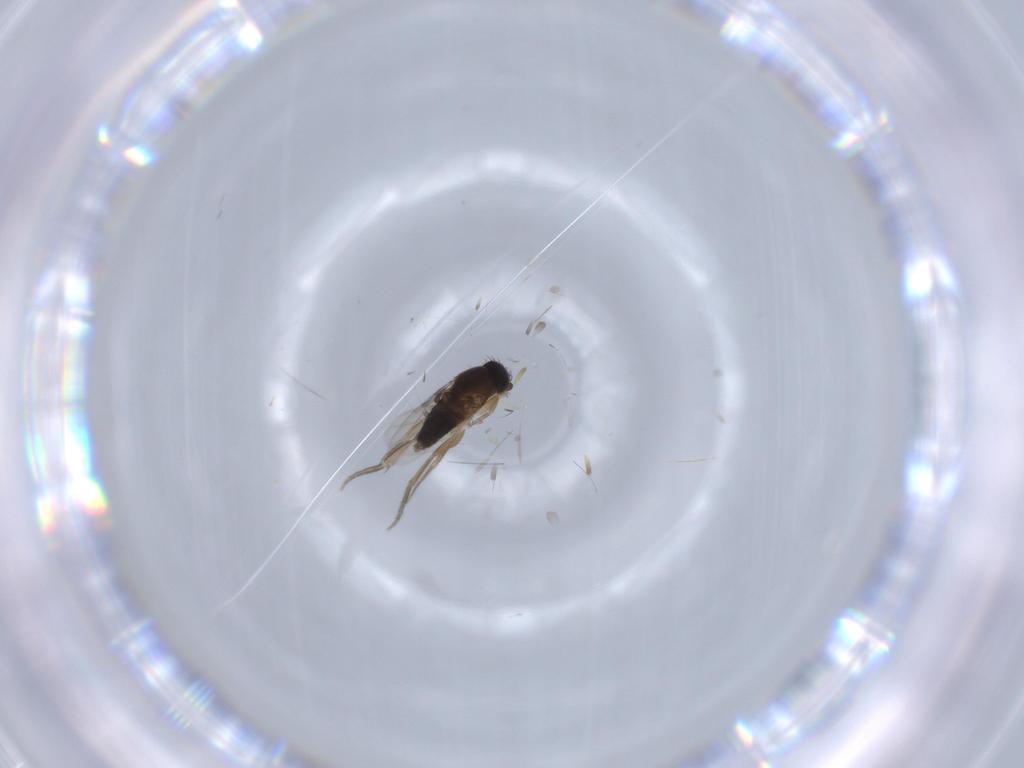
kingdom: Animalia
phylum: Arthropoda
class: Insecta
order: Diptera
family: Phoridae
